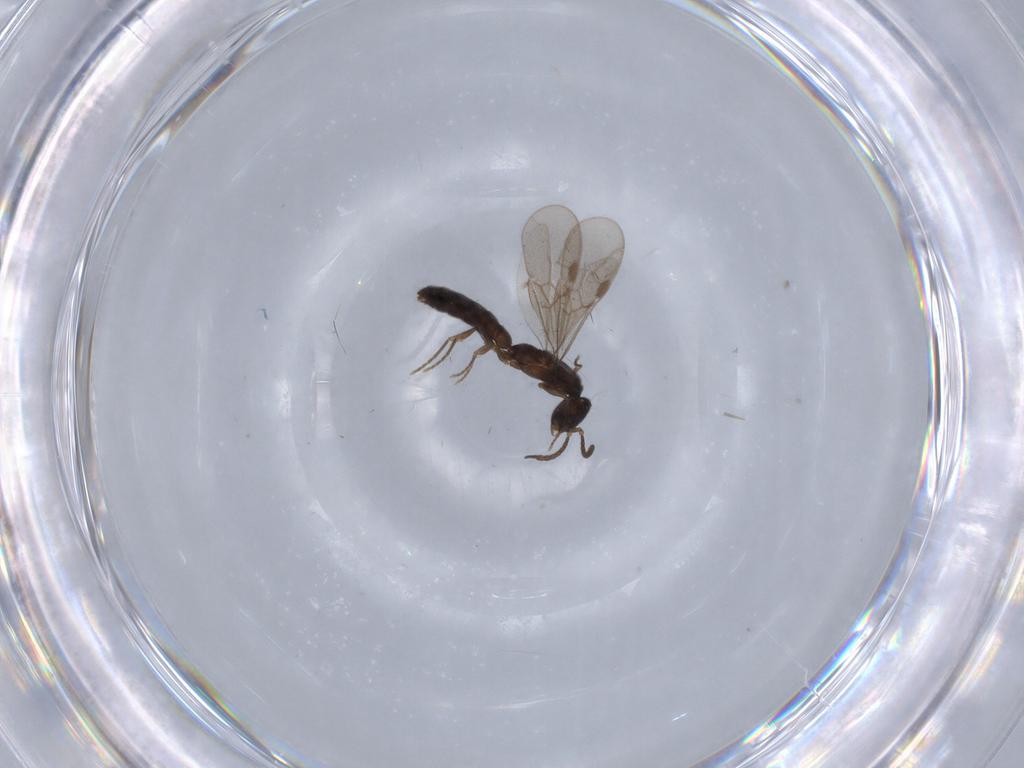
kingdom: Animalia
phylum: Arthropoda
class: Insecta
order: Hymenoptera
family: Formicidae
